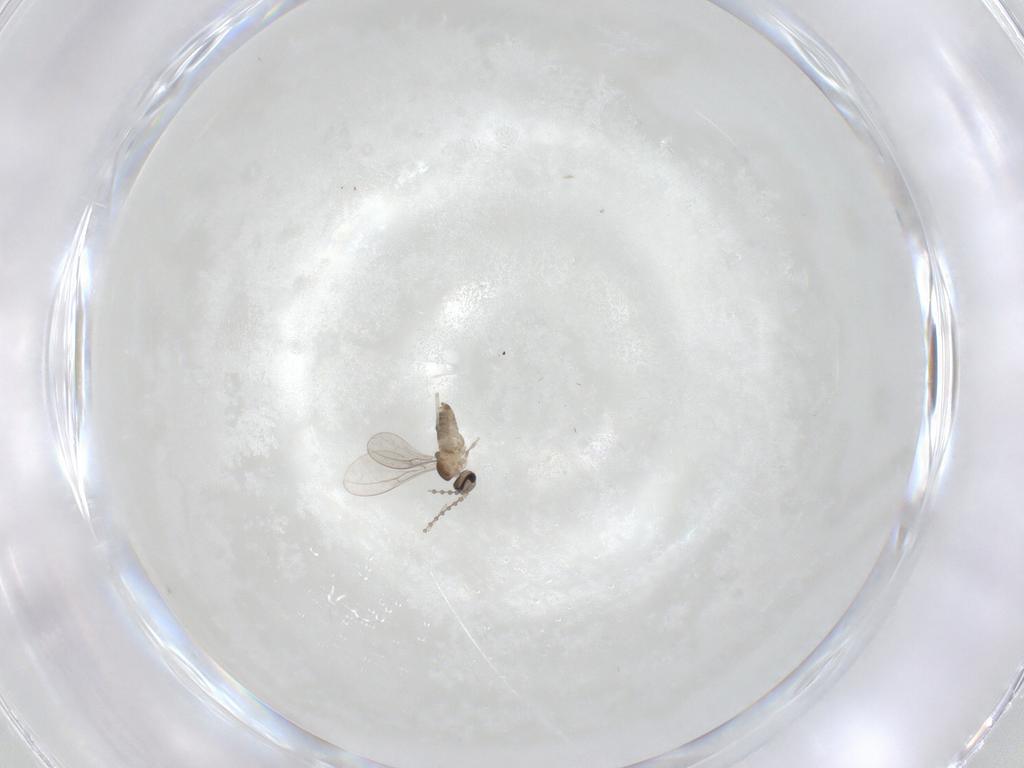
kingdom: Animalia
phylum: Arthropoda
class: Insecta
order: Diptera
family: Cecidomyiidae
